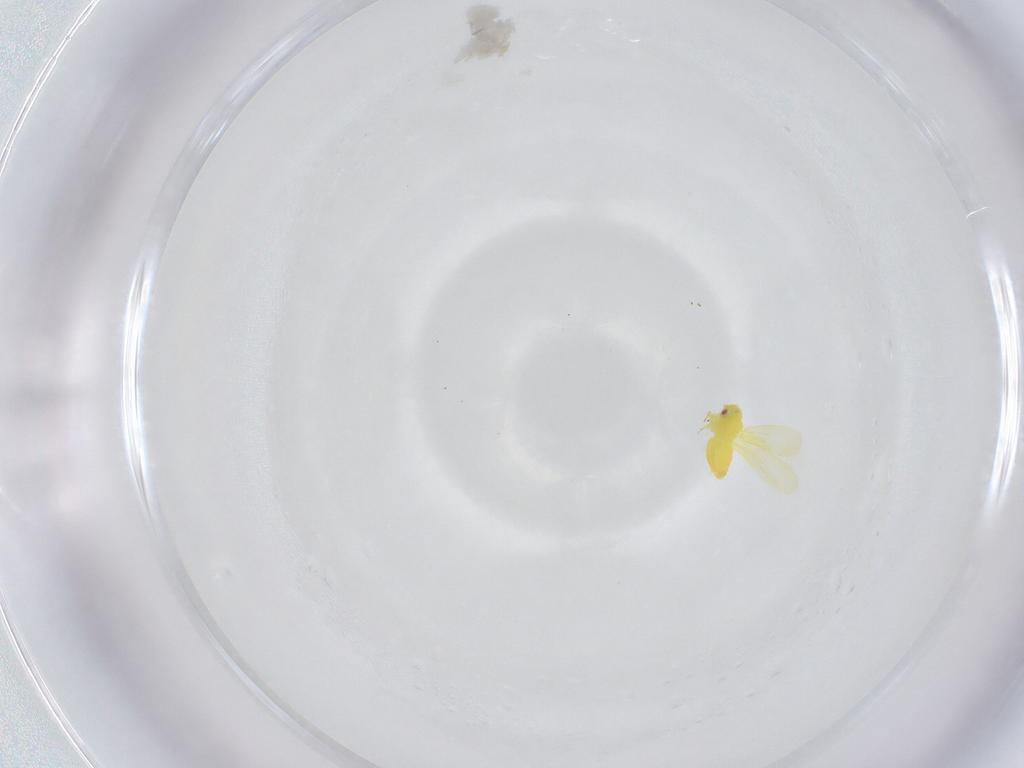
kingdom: Animalia
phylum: Arthropoda
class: Insecta
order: Hemiptera
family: Aleyrodidae
